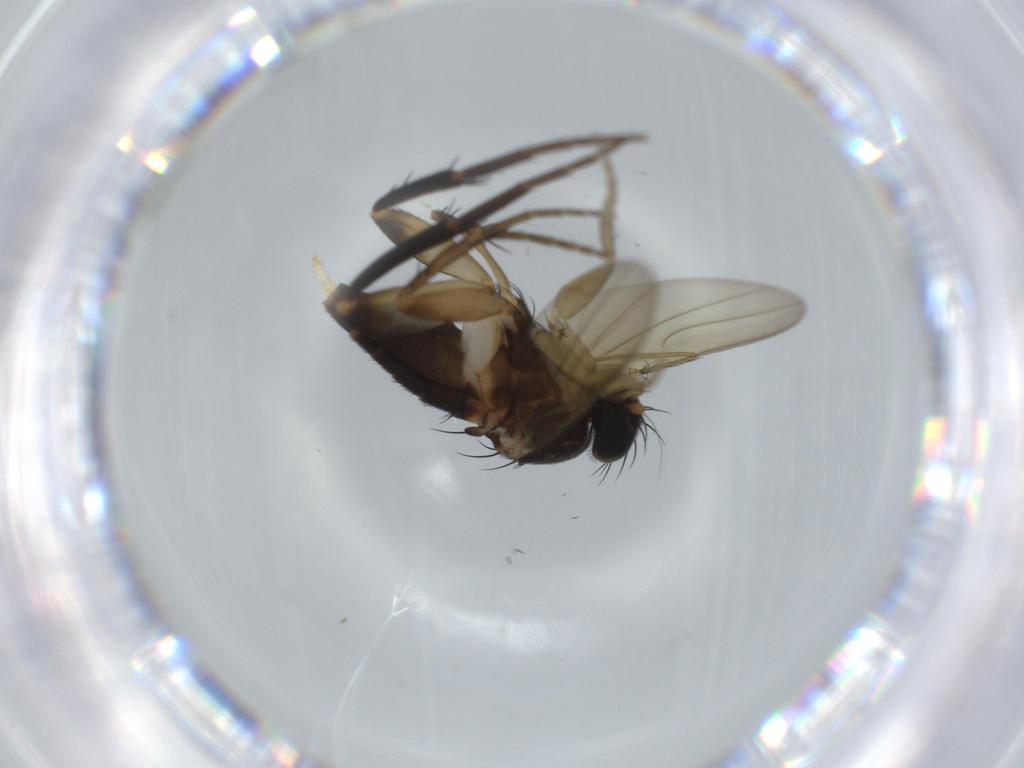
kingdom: Animalia
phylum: Arthropoda
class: Insecta
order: Diptera
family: Phoridae
